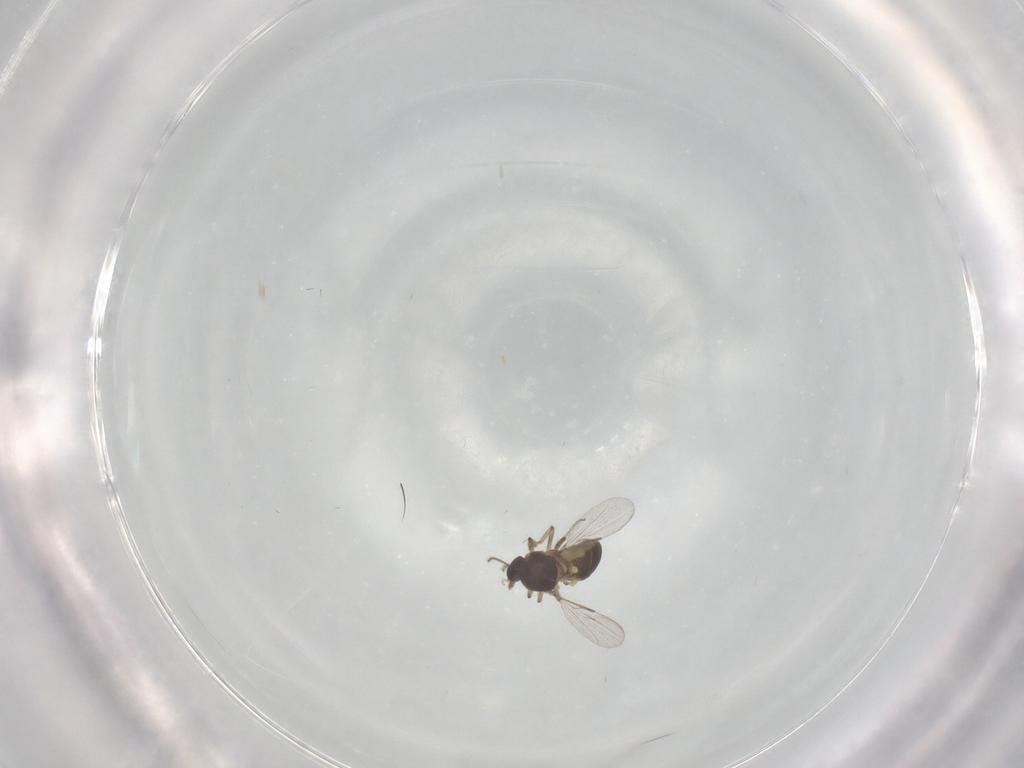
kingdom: Animalia
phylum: Arthropoda
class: Insecta
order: Diptera
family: Ceratopogonidae
